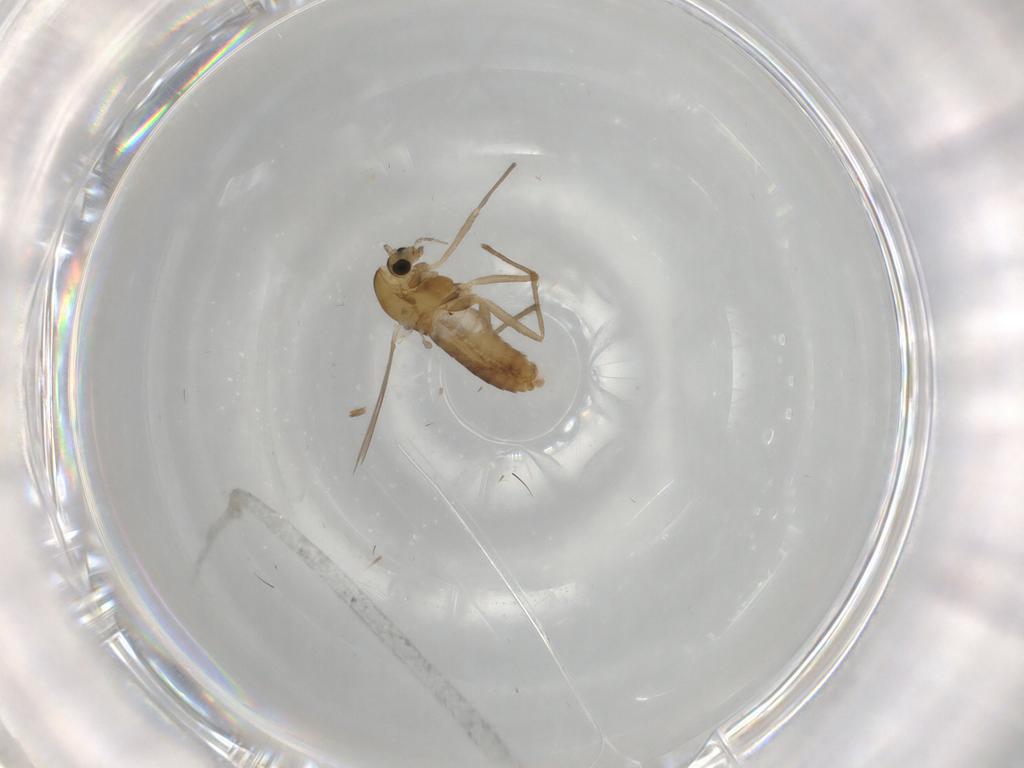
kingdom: Animalia
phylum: Arthropoda
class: Insecta
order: Diptera
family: Chironomidae
